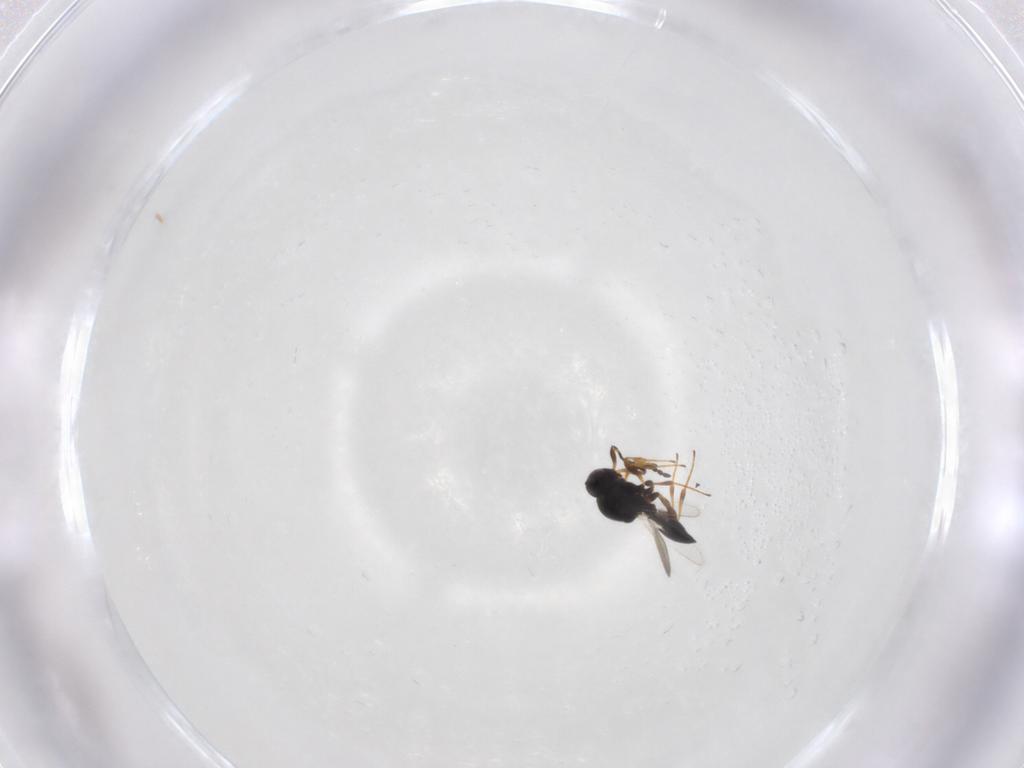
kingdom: Animalia
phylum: Arthropoda
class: Insecta
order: Hymenoptera
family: Platygastridae
